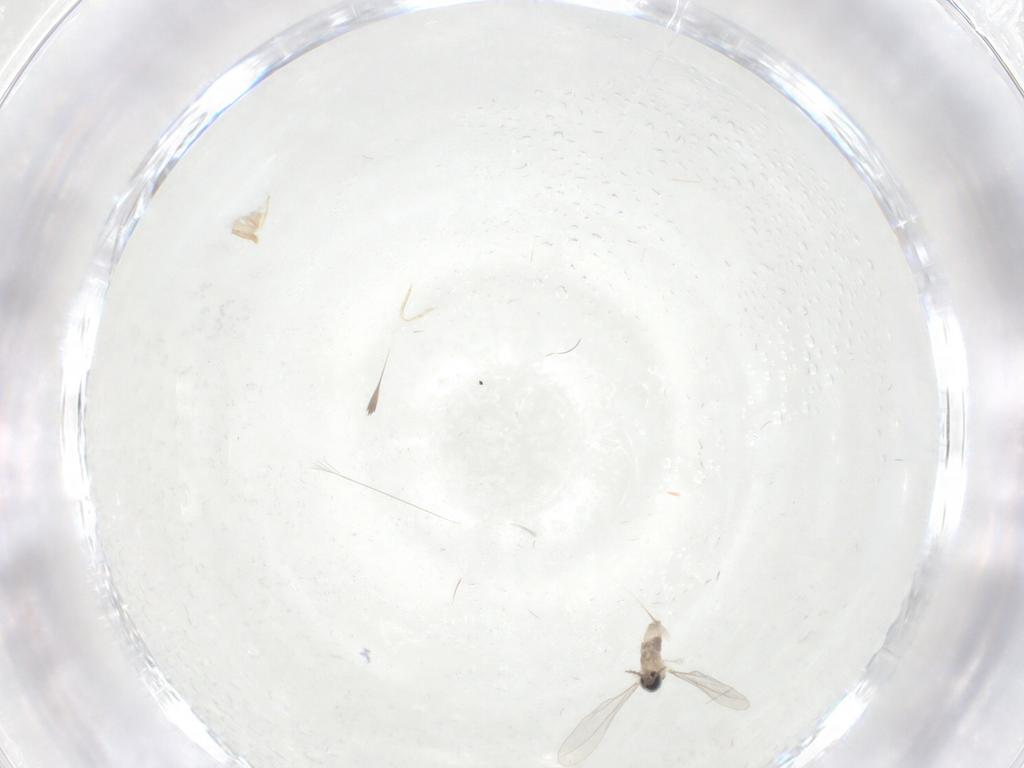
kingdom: Animalia
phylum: Arthropoda
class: Insecta
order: Diptera
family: Cecidomyiidae
